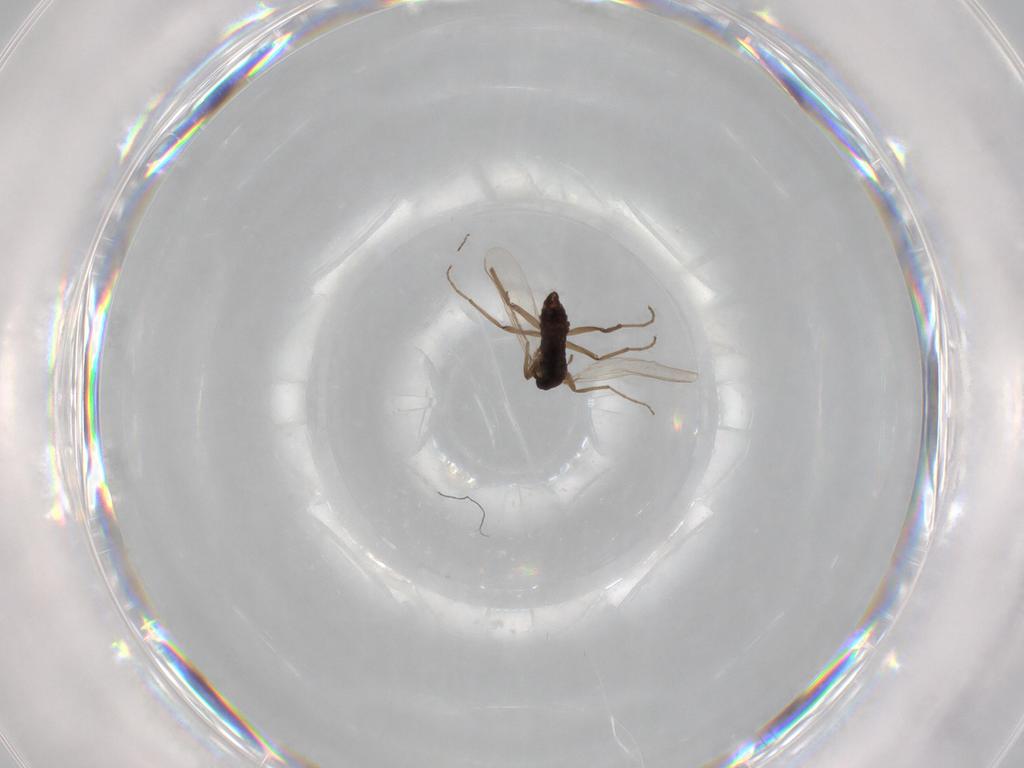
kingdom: Animalia
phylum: Arthropoda
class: Insecta
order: Diptera
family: Chironomidae
